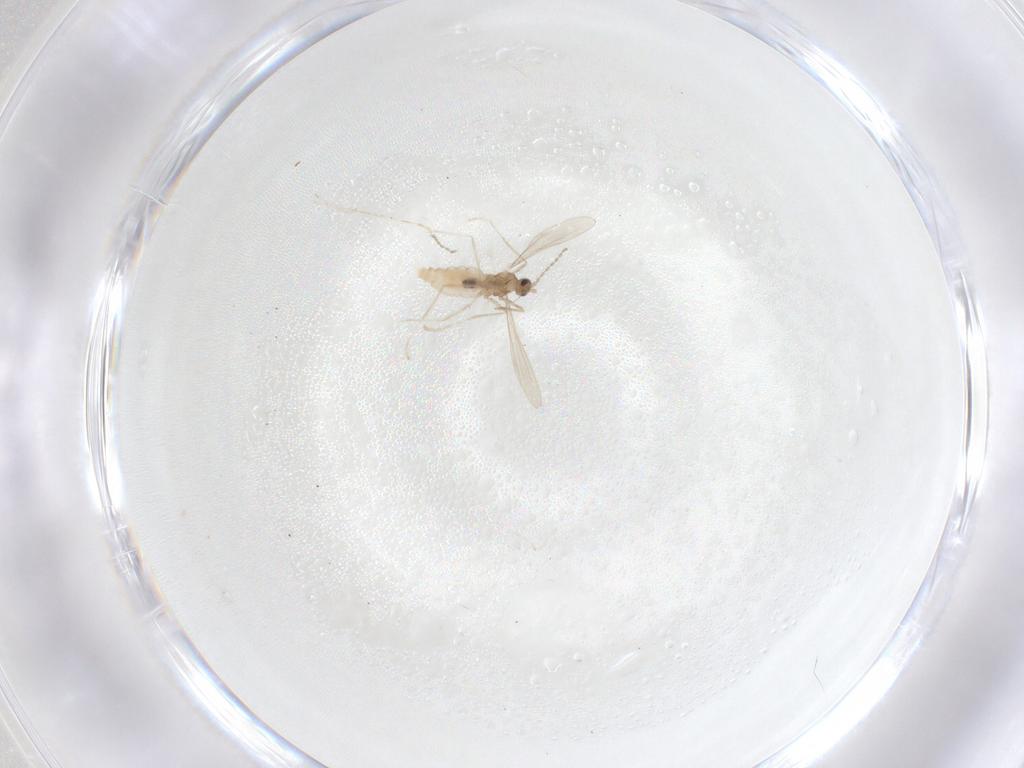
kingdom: Animalia
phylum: Arthropoda
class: Insecta
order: Diptera
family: Cecidomyiidae
